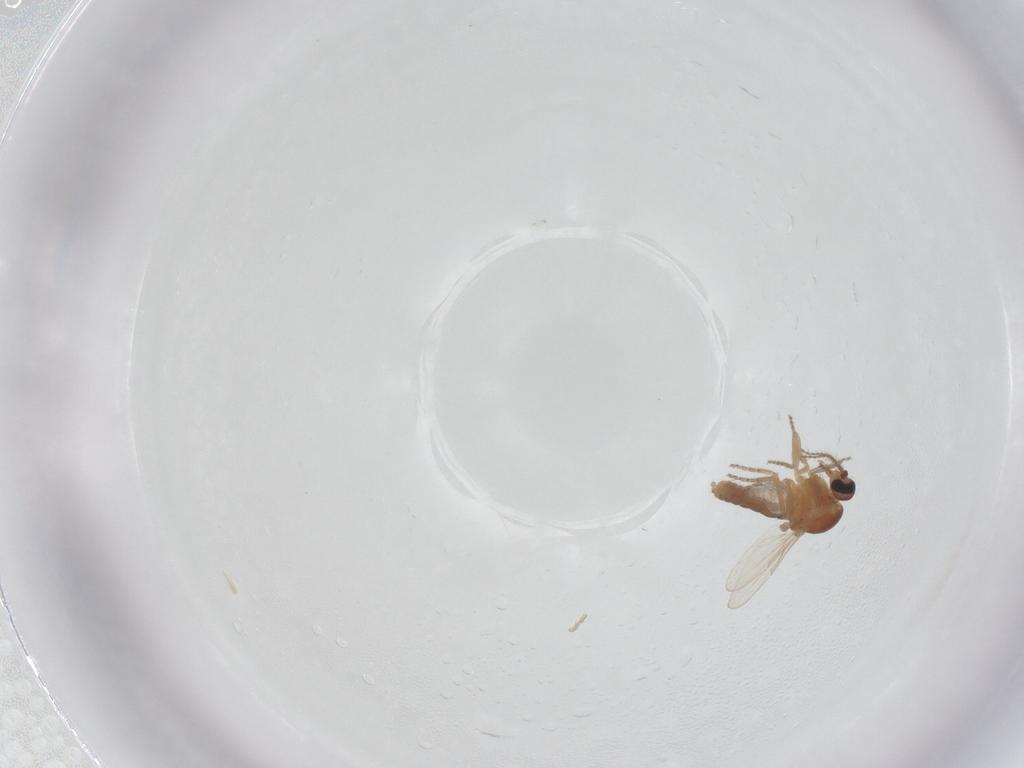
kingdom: Animalia
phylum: Arthropoda
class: Insecta
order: Diptera
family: Ceratopogonidae
